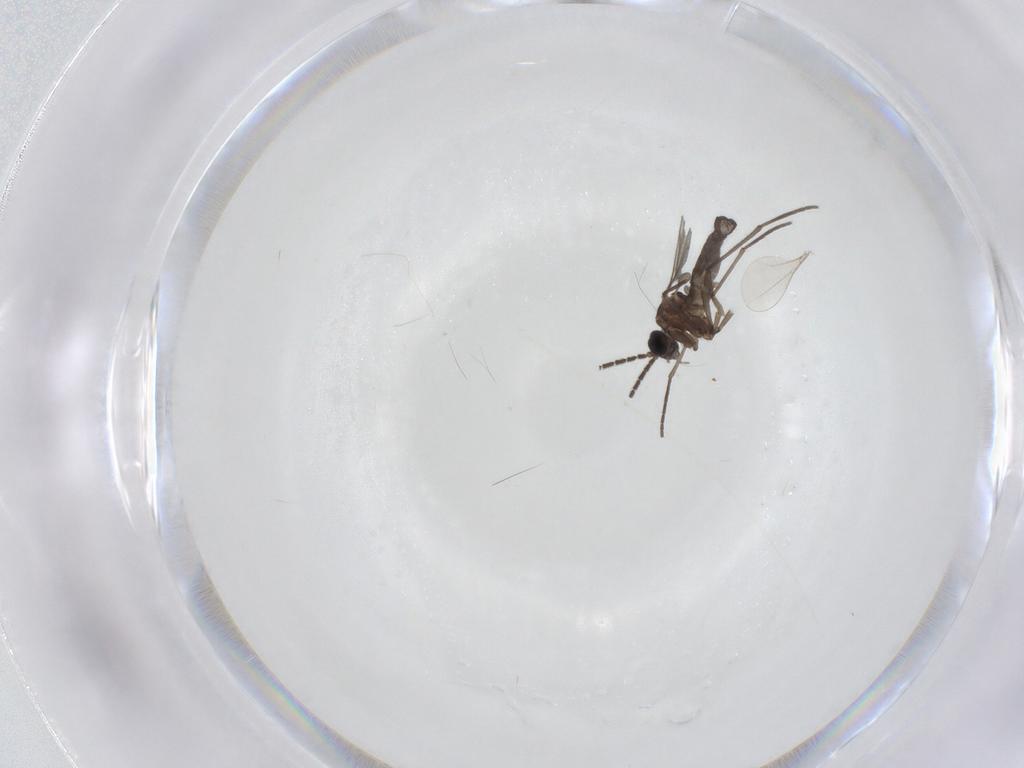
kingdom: Animalia
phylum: Arthropoda
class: Insecta
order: Diptera
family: Sciaridae
